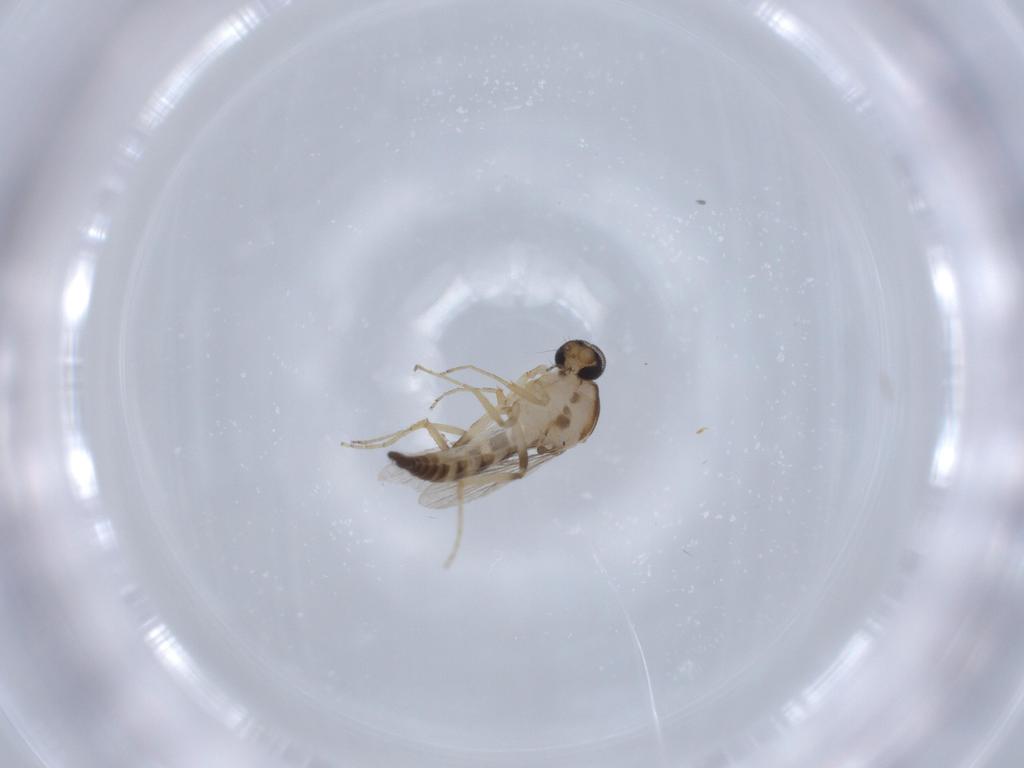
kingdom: Animalia
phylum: Arthropoda
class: Insecta
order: Diptera
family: Ceratopogonidae
